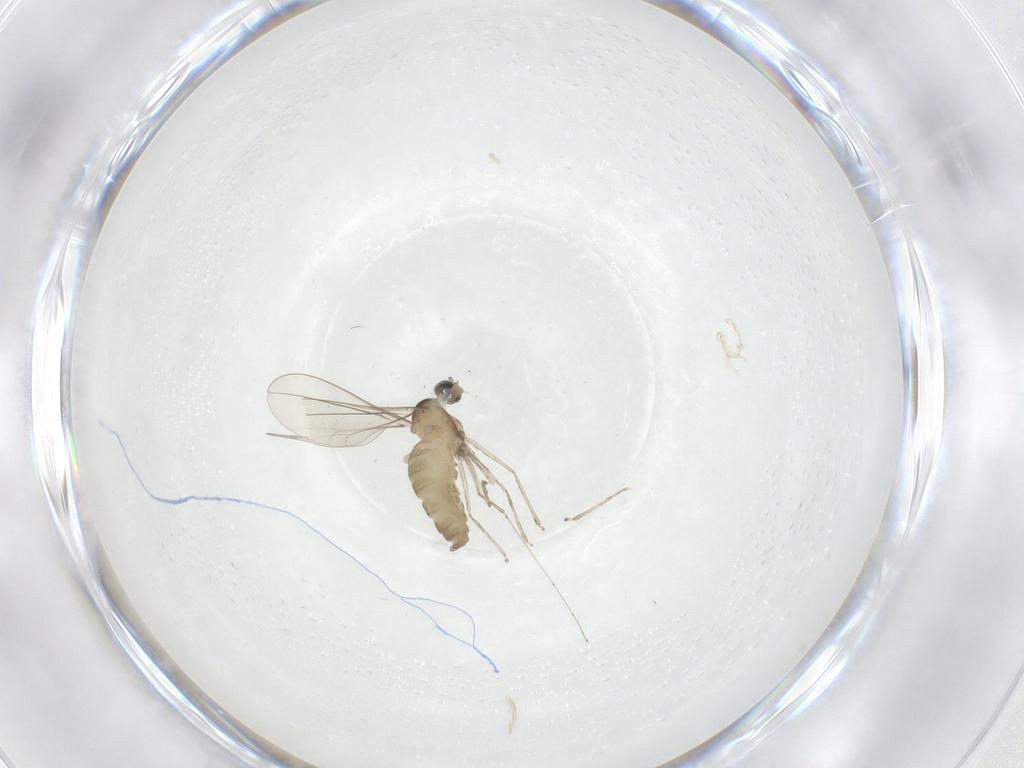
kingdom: Animalia
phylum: Arthropoda
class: Insecta
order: Diptera
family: Cecidomyiidae
